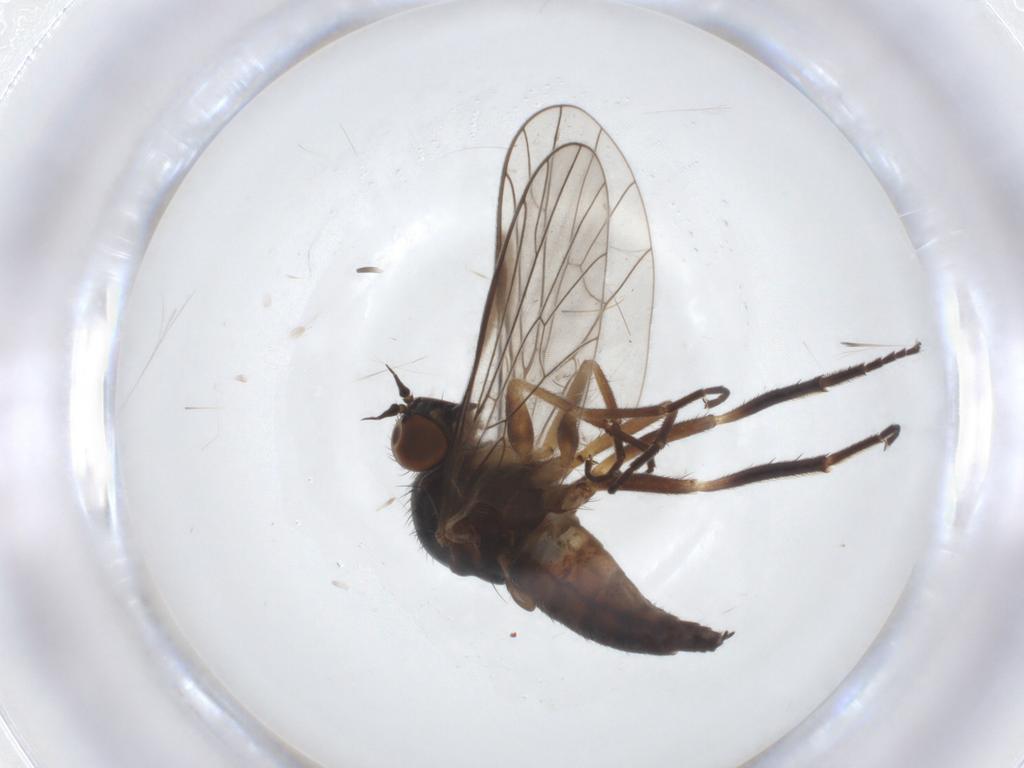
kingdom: Animalia
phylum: Arthropoda
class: Insecta
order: Diptera
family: Empididae
